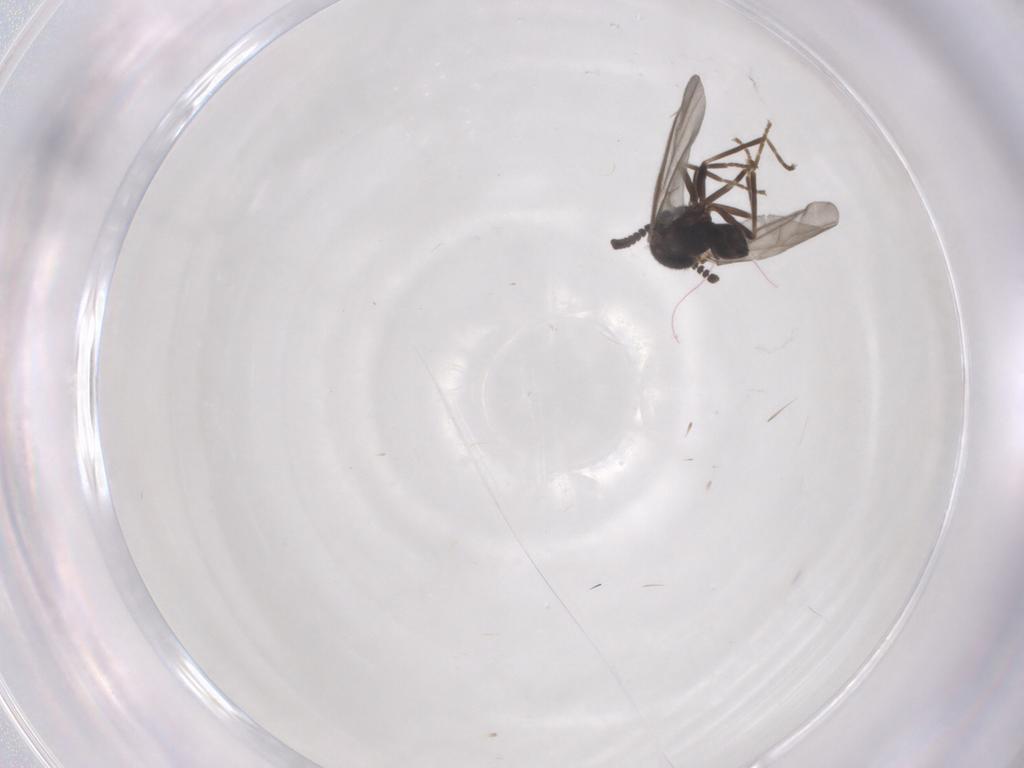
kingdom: Animalia
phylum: Arthropoda
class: Insecta
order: Diptera
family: Scatopsidae
